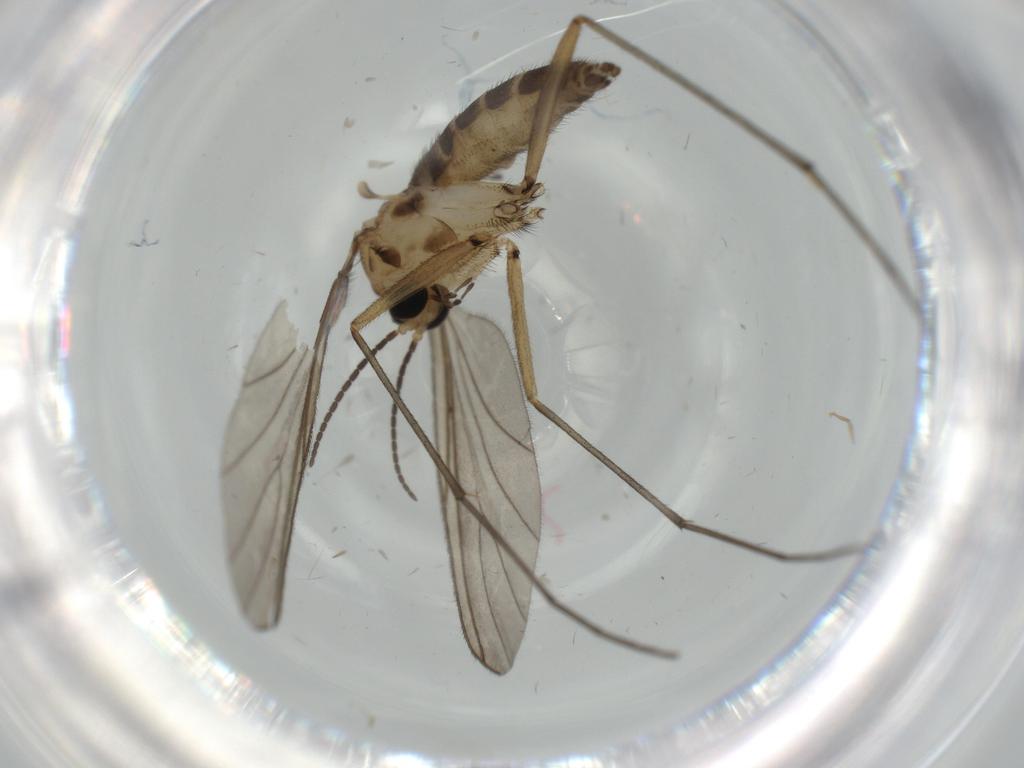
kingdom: Animalia
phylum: Arthropoda
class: Insecta
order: Diptera
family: Sciaridae
